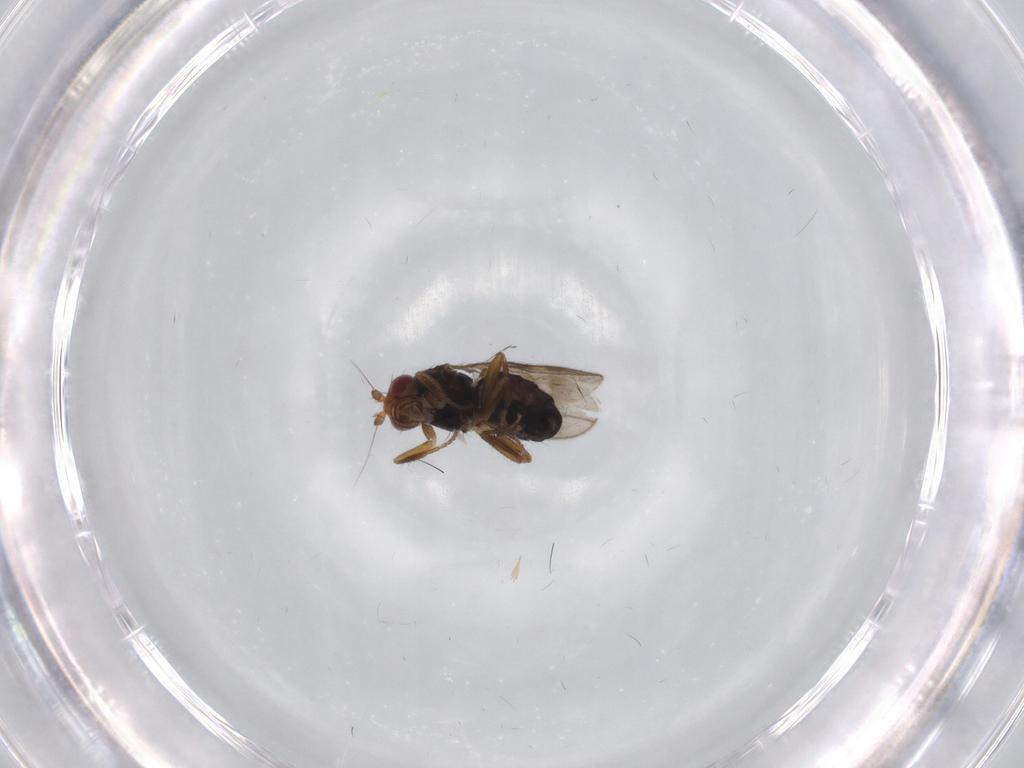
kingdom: Animalia
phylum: Arthropoda
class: Insecta
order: Diptera
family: Sphaeroceridae
